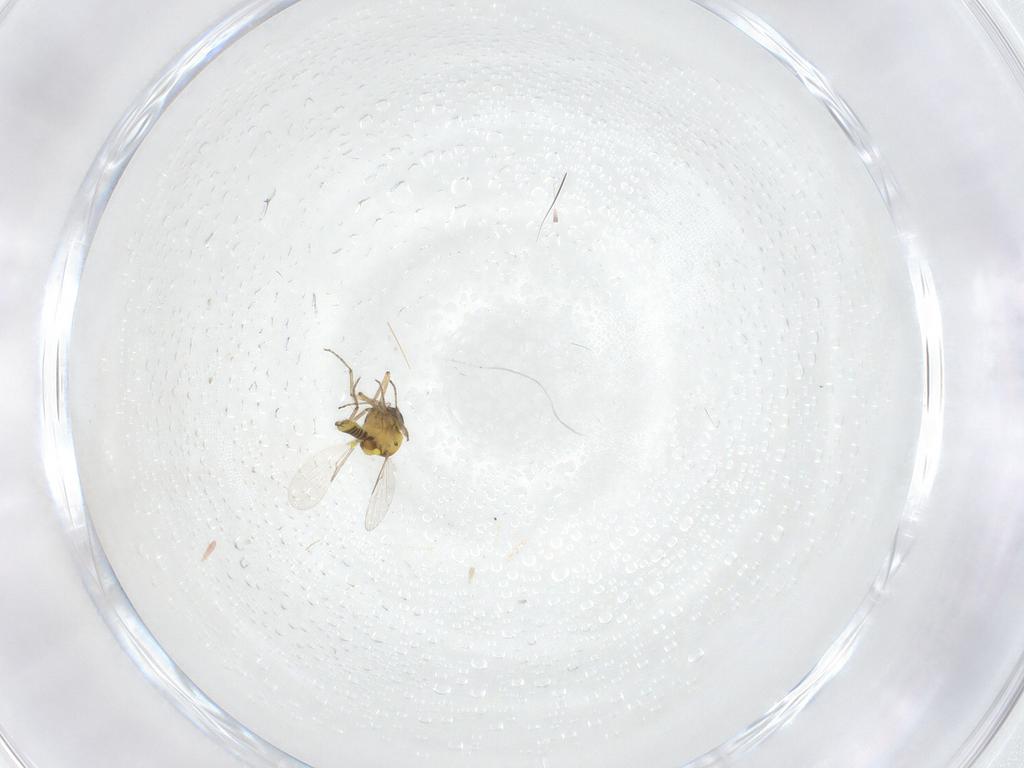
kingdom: Animalia
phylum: Arthropoda
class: Insecta
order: Diptera
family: Ceratopogonidae
